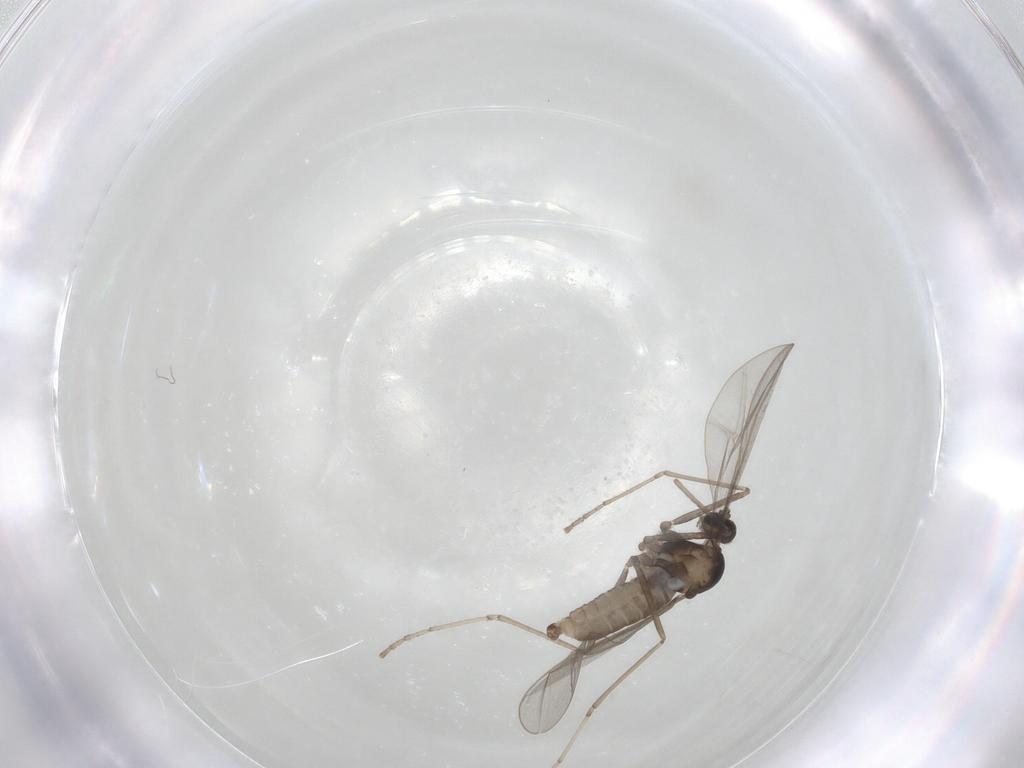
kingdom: Animalia
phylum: Arthropoda
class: Insecta
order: Diptera
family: Cecidomyiidae
